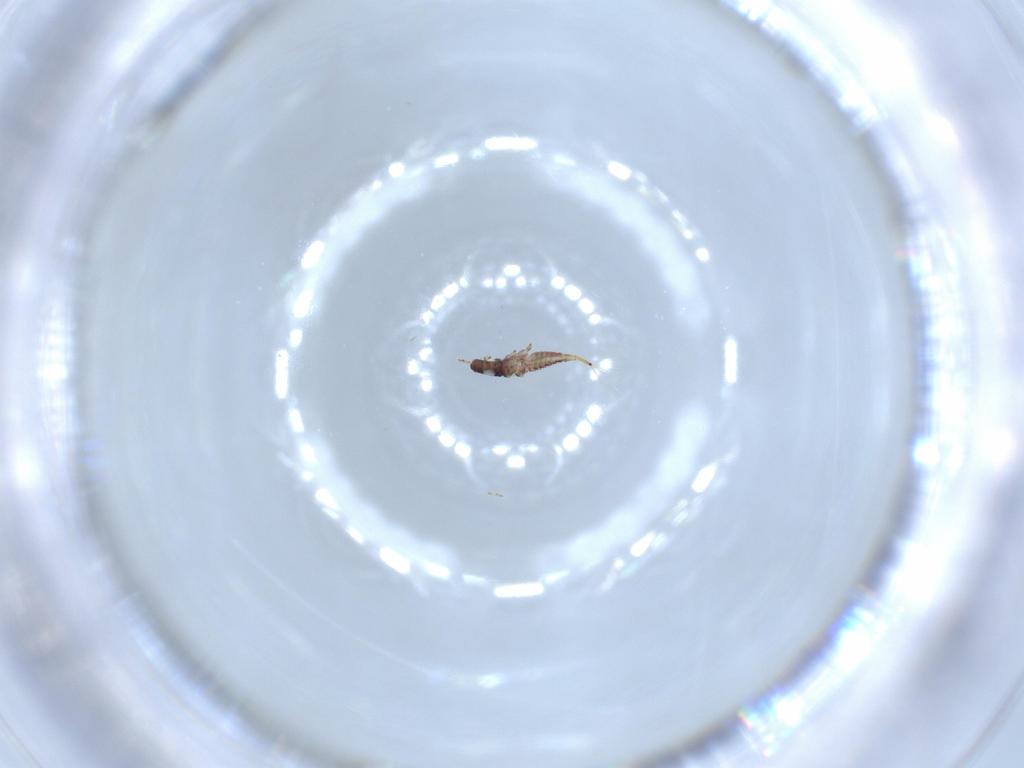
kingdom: Animalia
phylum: Arthropoda
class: Insecta
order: Thysanoptera
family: Phlaeothripidae
